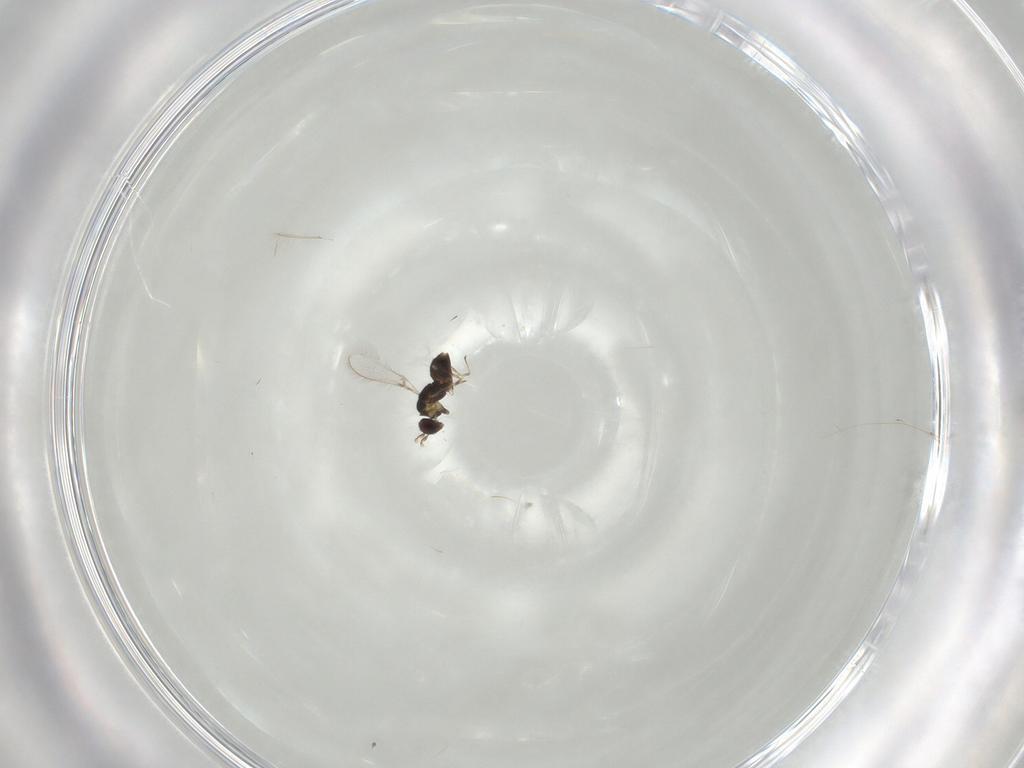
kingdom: Animalia
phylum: Arthropoda
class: Insecta
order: Hymenoptera
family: Mymaridae
